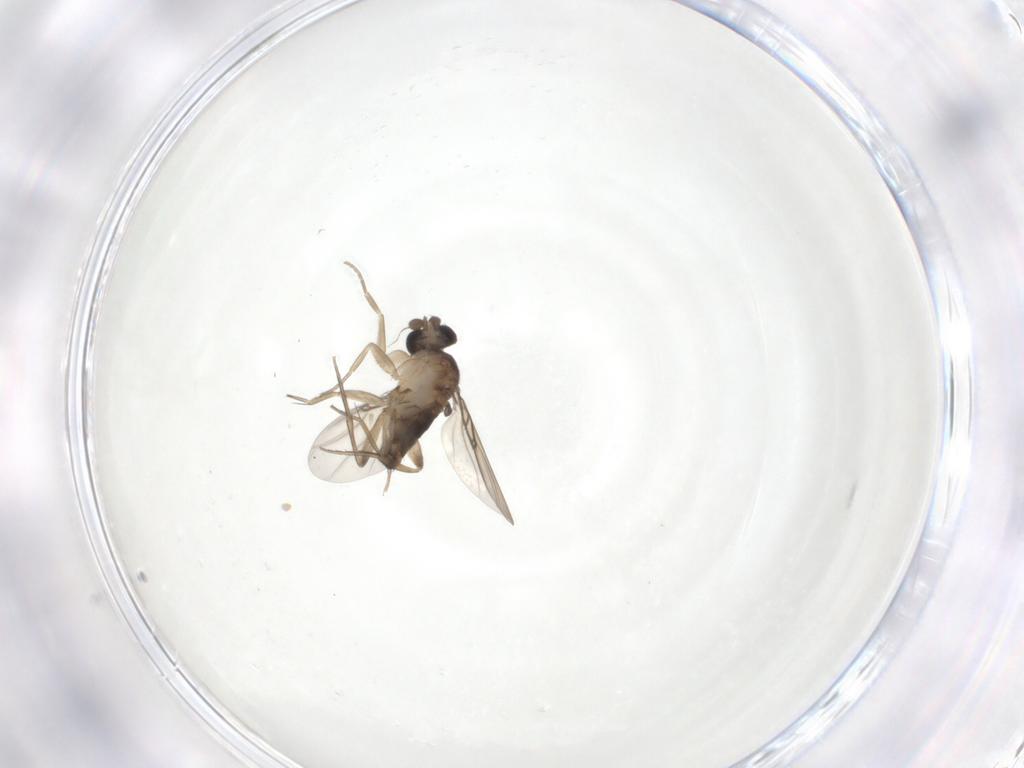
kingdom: Animalia
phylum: Arthropoda
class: Insecta
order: Diptera
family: Phoridae
